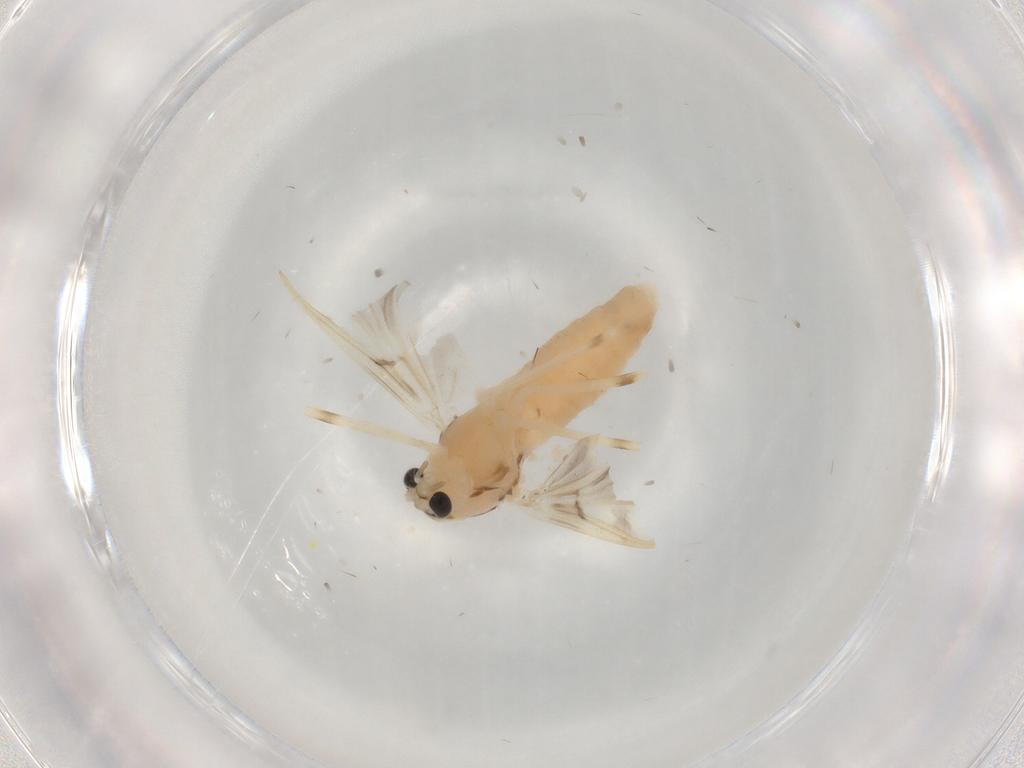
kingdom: Animalia
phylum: Arthropoda
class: Insecta
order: Diptera
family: Chironomidae
